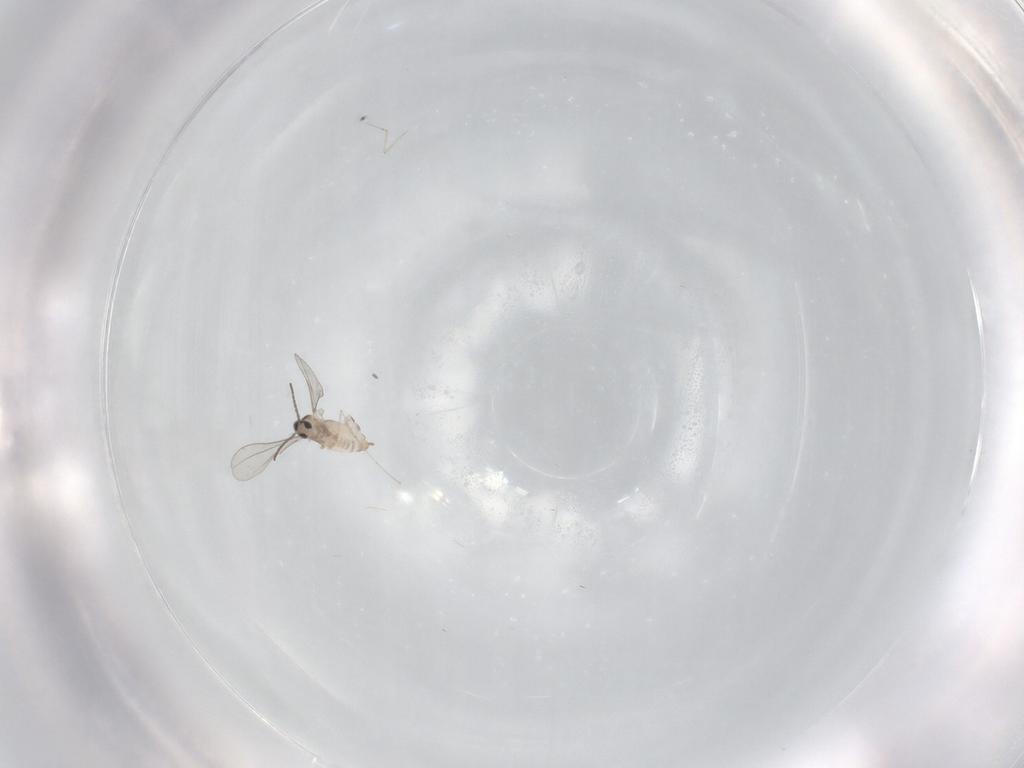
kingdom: Animalia
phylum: Arthropoda
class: Insecta
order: Diptera
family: Cecidomyiidae
